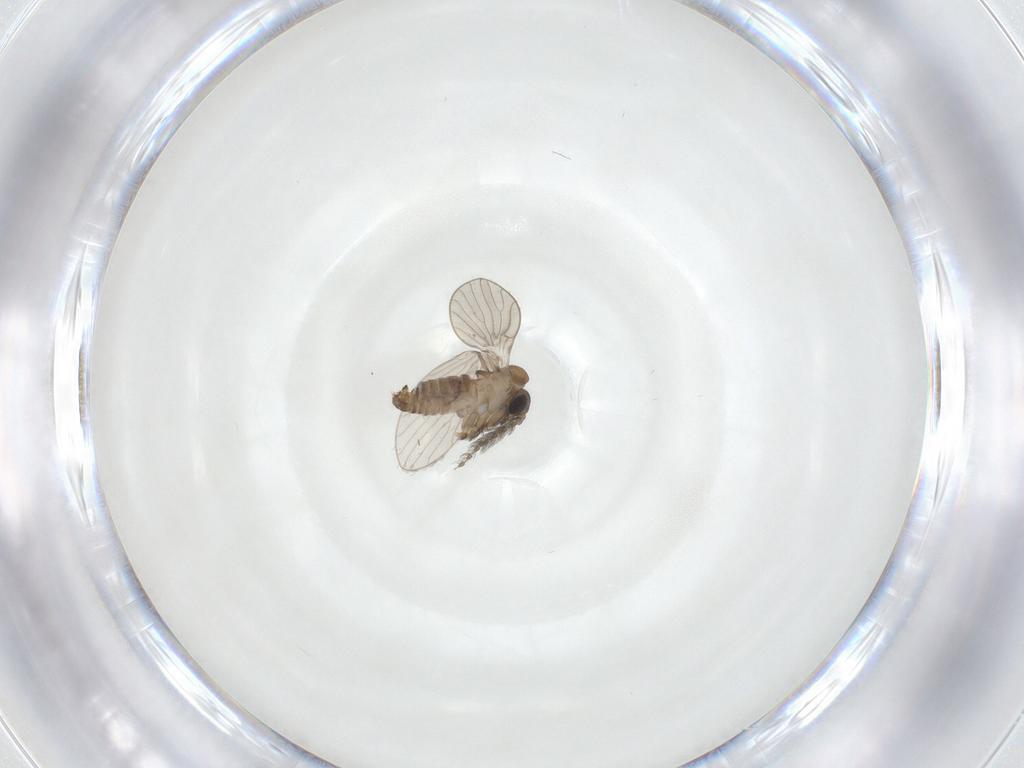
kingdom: Animalia
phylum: Arthropoda
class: Insecta
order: Diptera
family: Psychodidae
